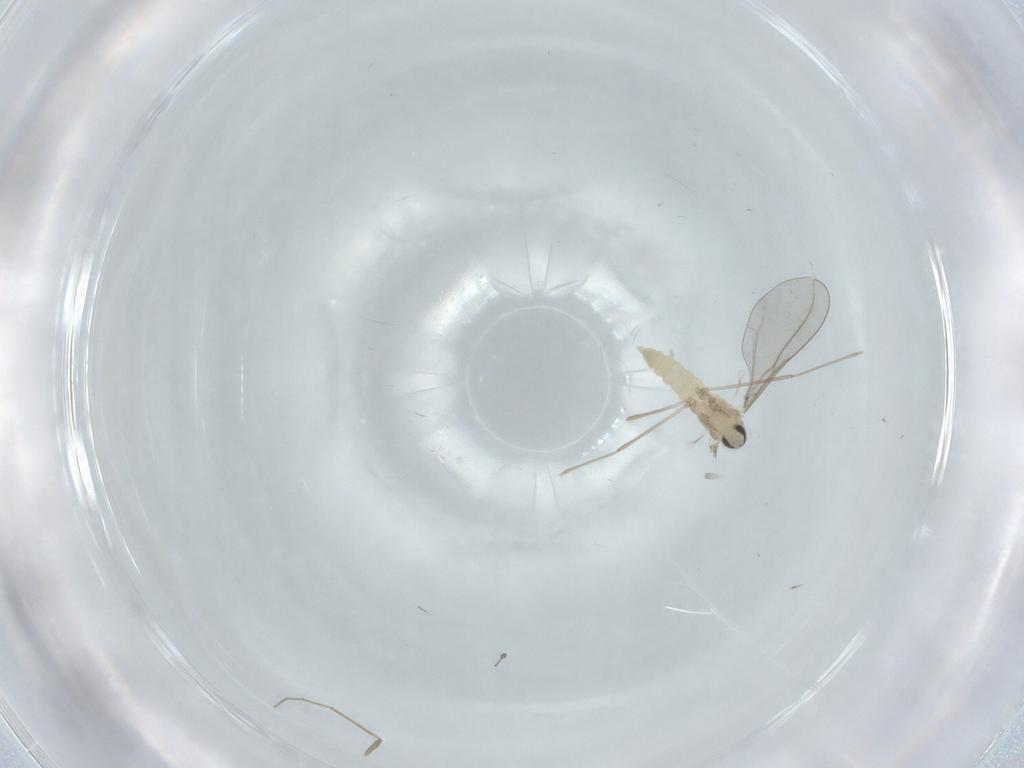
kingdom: Animalia
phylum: Arthropoda
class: Insecta
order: Diptera
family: Cecidomyiidae
